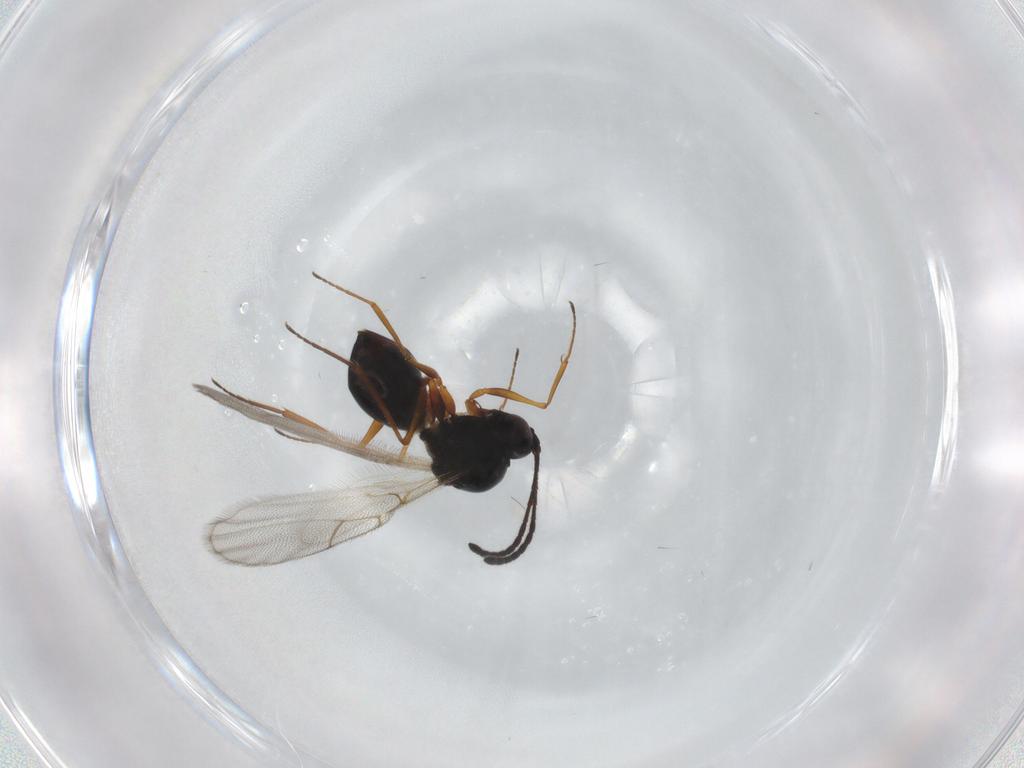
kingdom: Animalia
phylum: Arthropoda
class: Insecta
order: Hymenoptera
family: Figitidae
